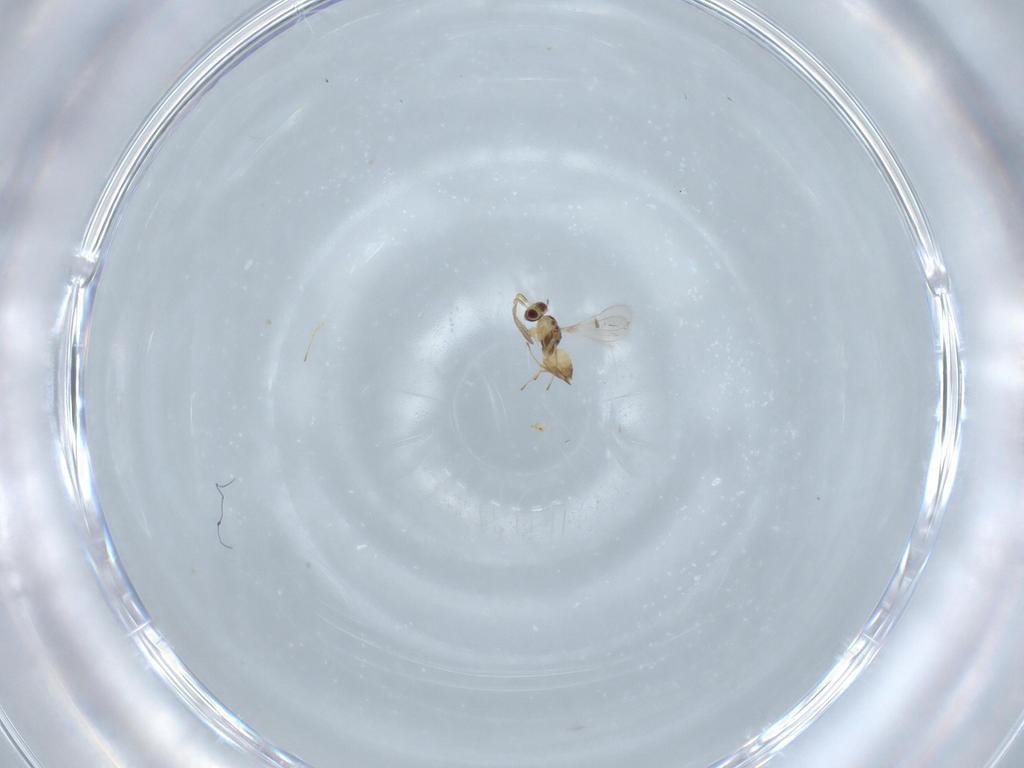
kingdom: Animalia
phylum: Arthropoda
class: Insecta
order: Hymenoptera
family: Mymaridae
